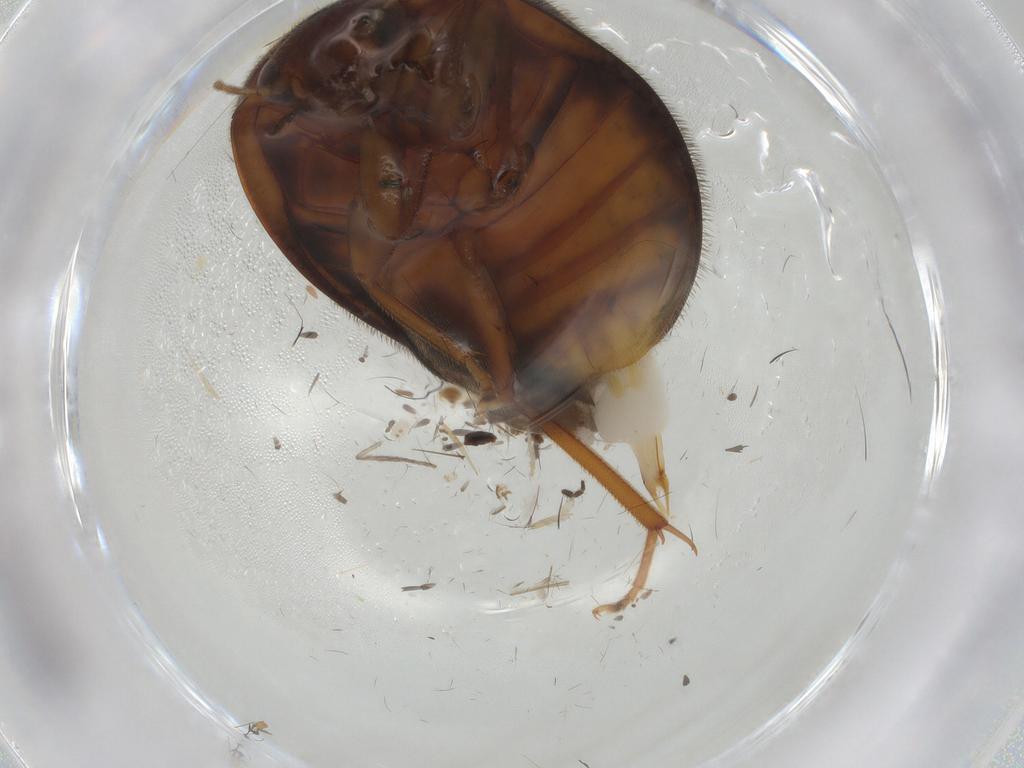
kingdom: Animalia
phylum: Arthropoda
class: Insecta
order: Coleoptera
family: Scirtidae
